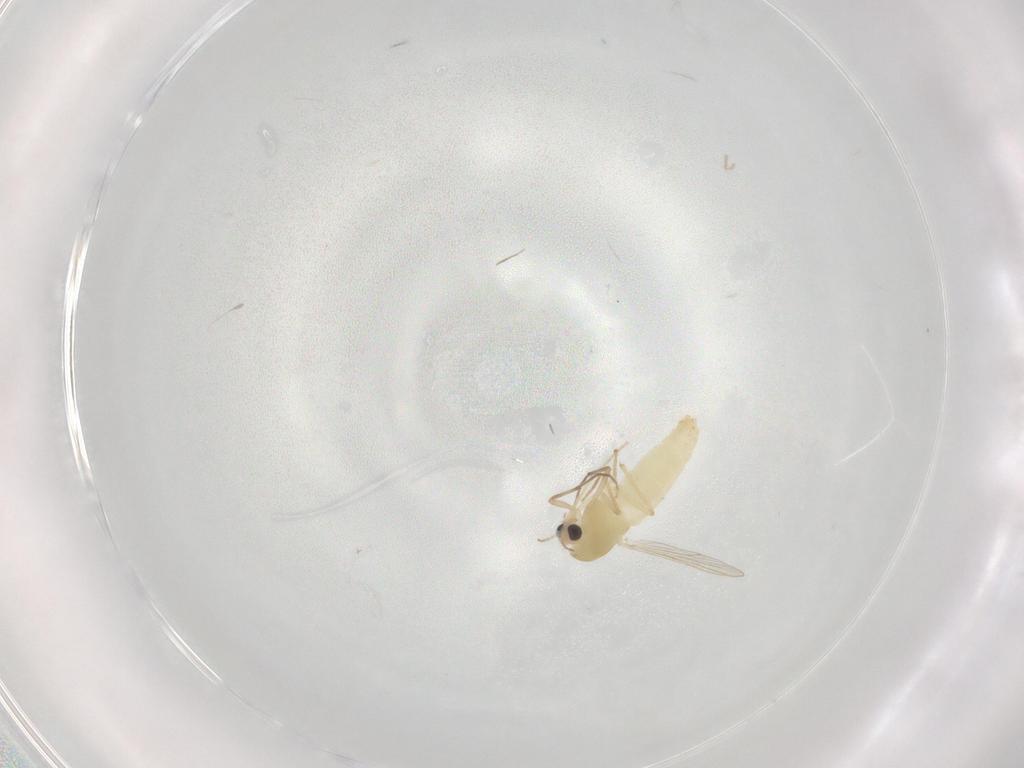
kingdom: Animalia
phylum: Arthropoda
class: Insecta
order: Diptera
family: Chironomidae
